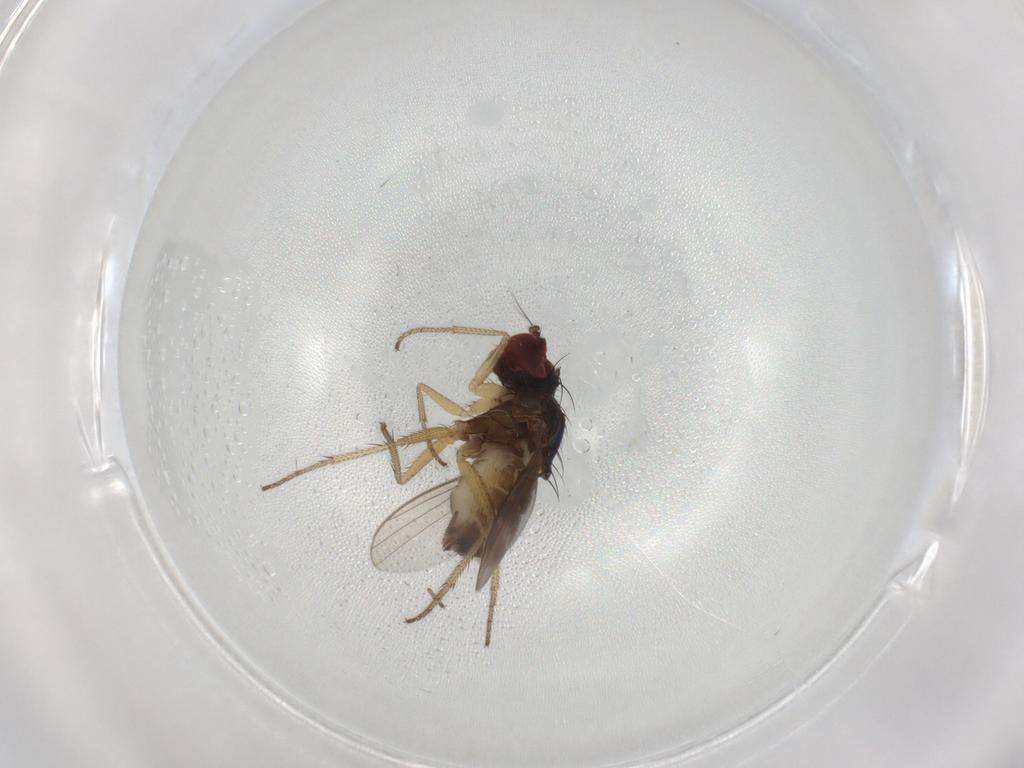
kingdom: Animalia
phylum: Arthropoda
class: Insecta
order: Diptera
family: Dolichopodidae
